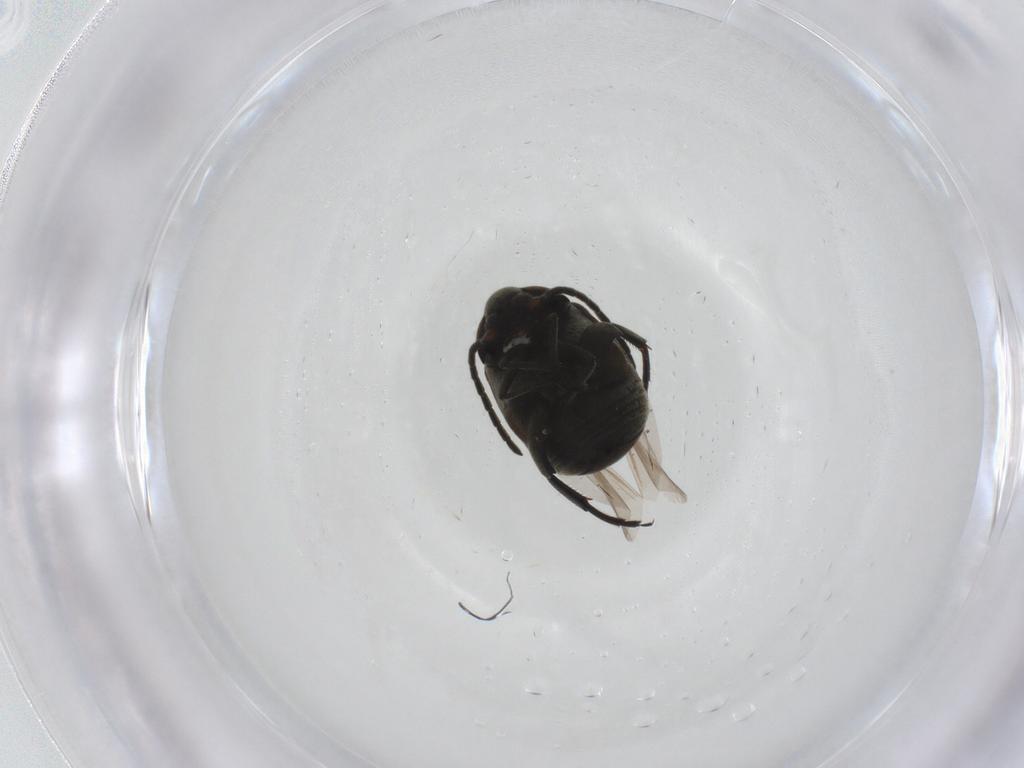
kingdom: Animalia
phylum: Arthropoda
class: Insecta
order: Coleoptera
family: Chrysomelidae
